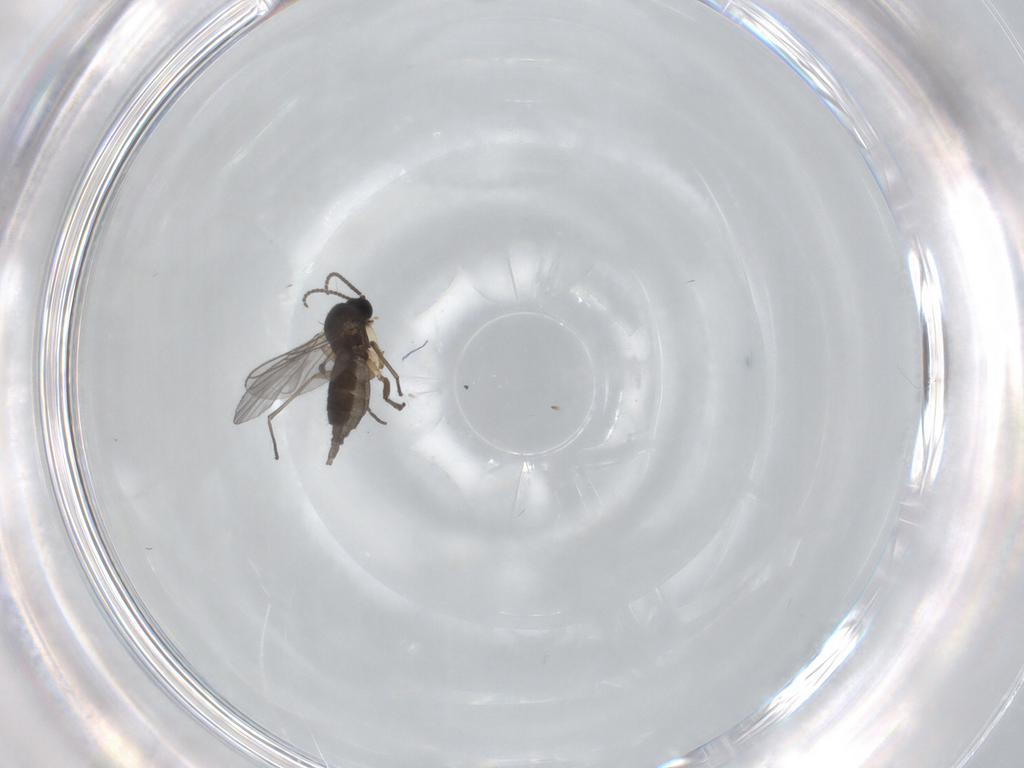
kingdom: Animalia
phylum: Arthropoda
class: Insecta
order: Diptera
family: Sciaridae
